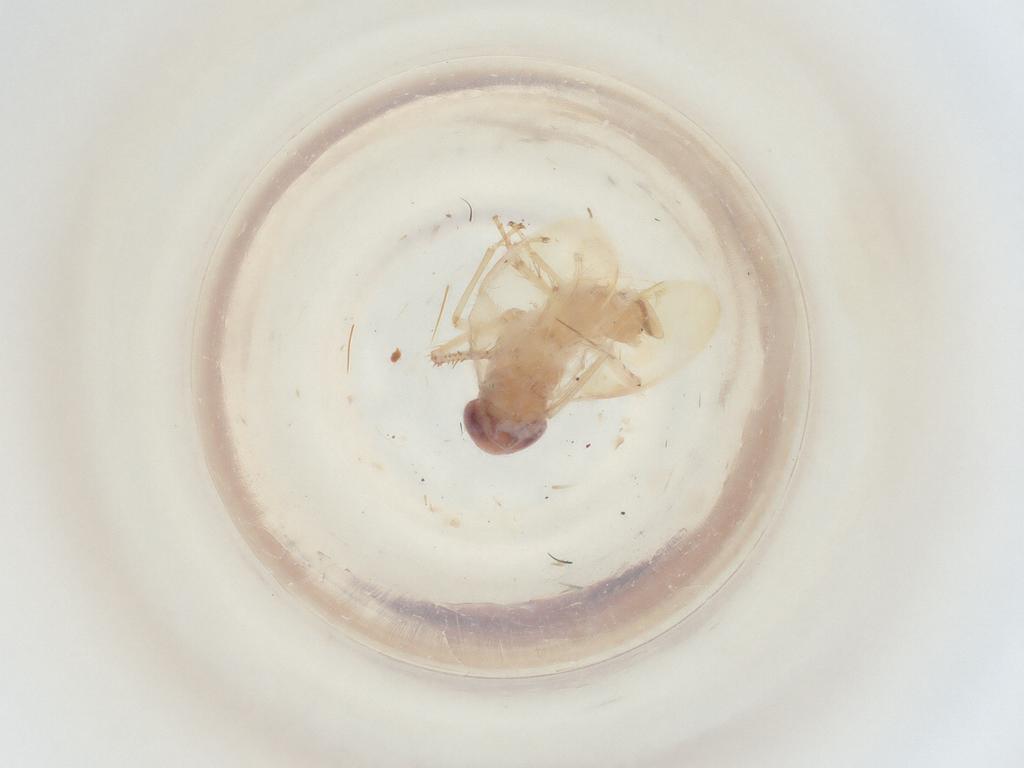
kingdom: Animalia
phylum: Arthropoda
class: Insecta
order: Hemiptera
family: Cicadellidae
